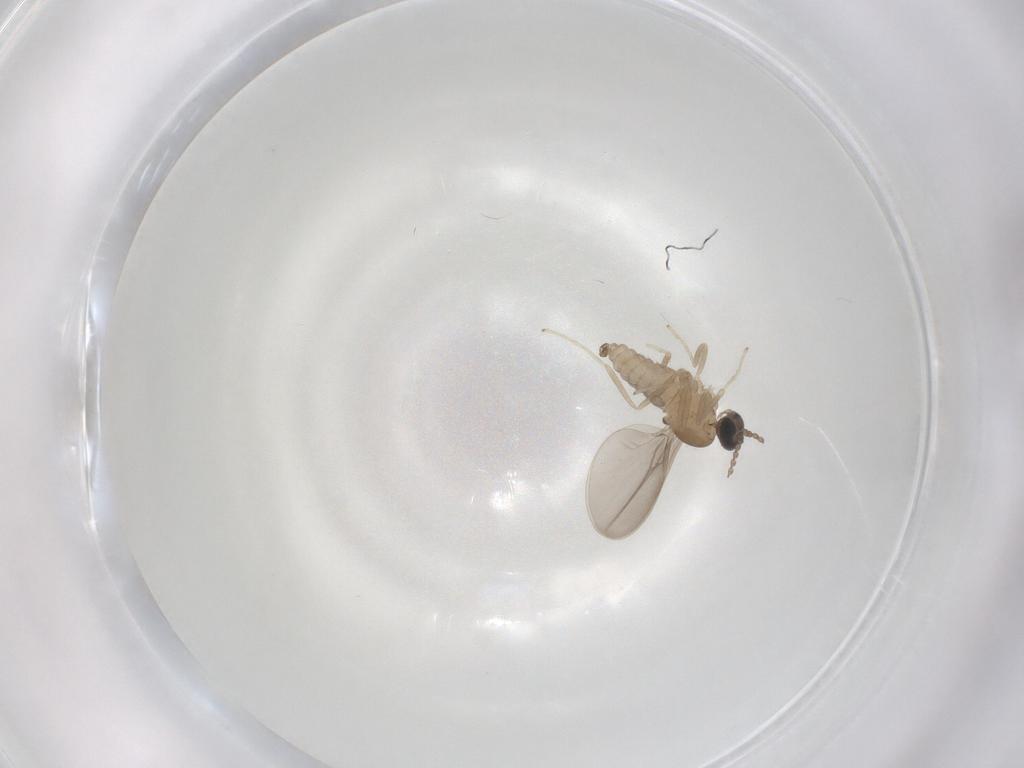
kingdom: Animalia
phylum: Arthropoda
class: Insecta
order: Diptera
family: Cecidomyiidae
